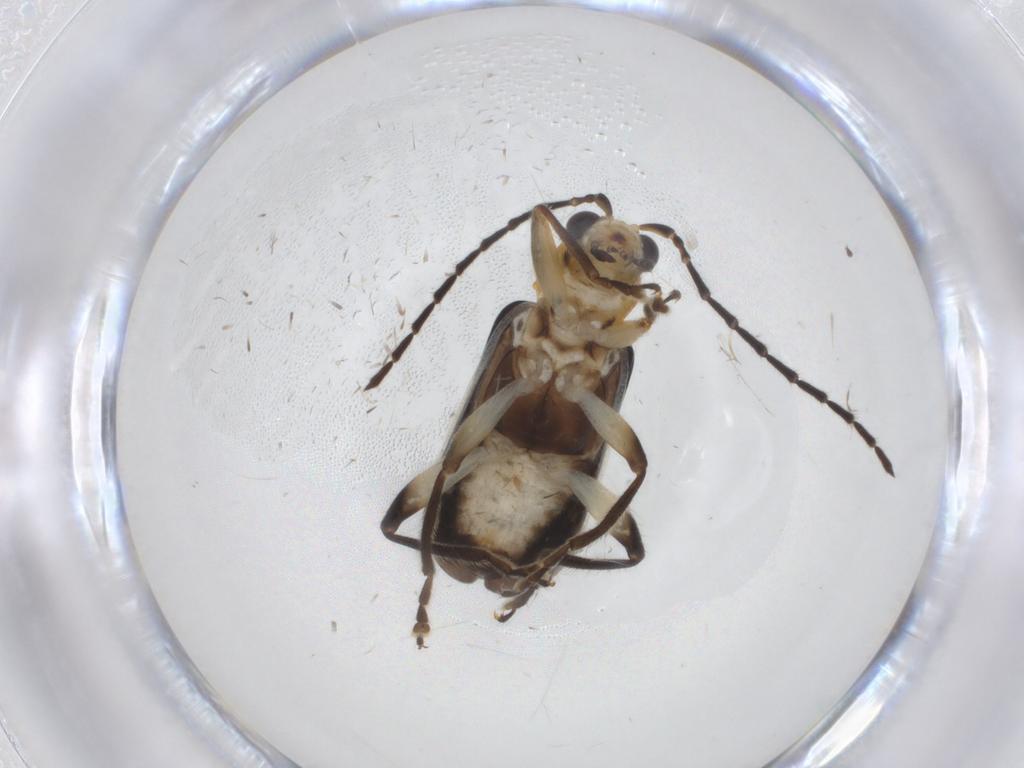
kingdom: Animalia
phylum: Arthropoda
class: Insecta
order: Coleoptera
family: Chrysomelidae
